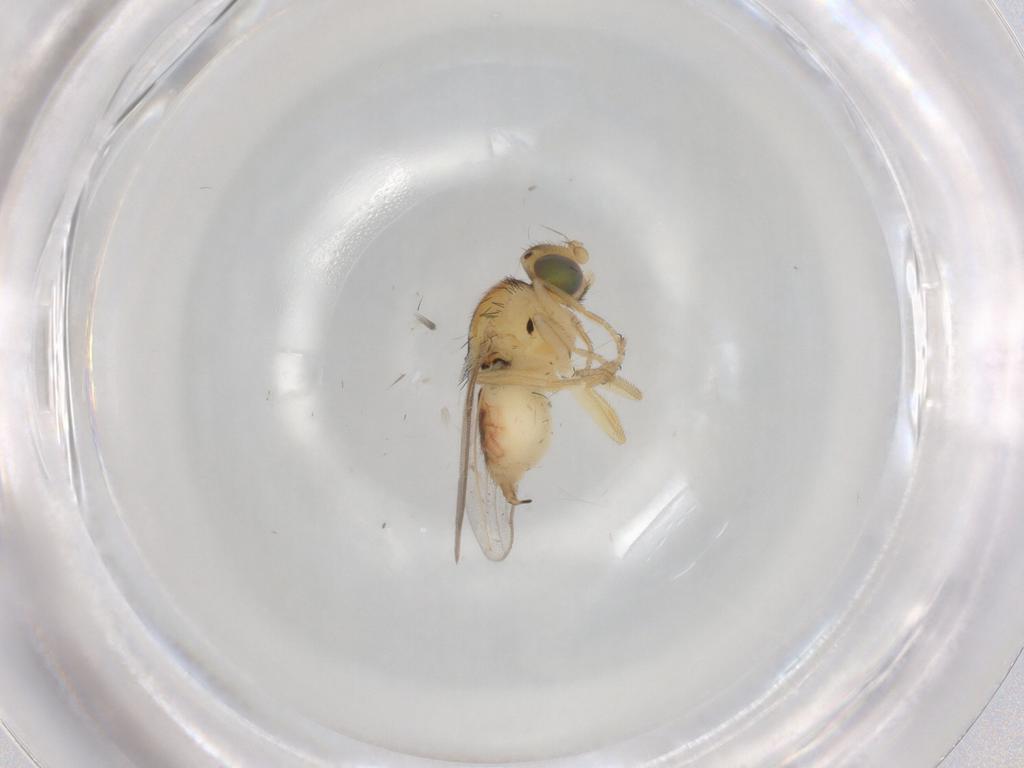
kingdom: Animalia
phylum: Arthropoda
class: Insecta
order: Diptera
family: Chloropidae
